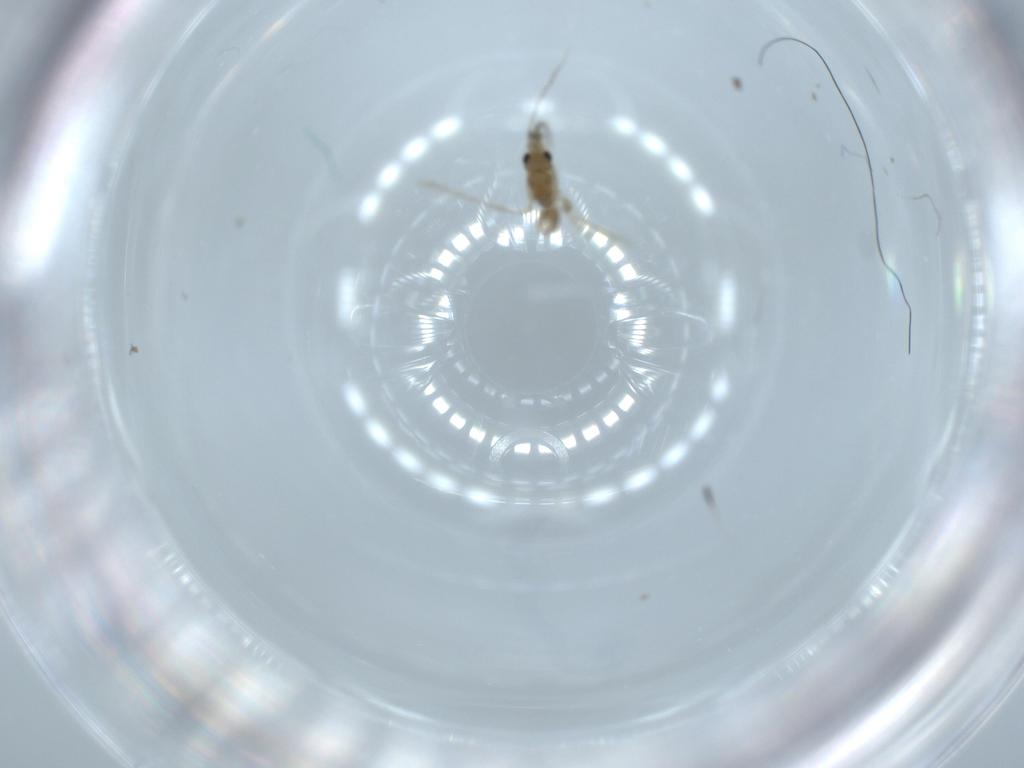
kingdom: Animalia
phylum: Arthropoda
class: Insecta
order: Diptera
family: Psychodidae
